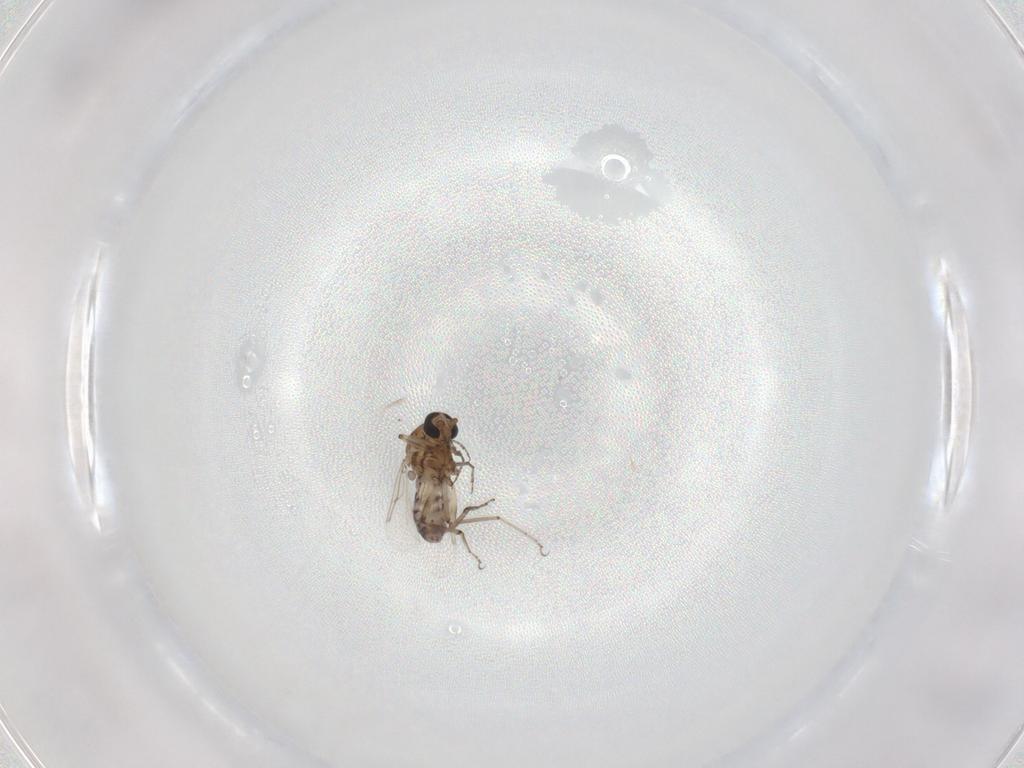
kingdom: Animalia
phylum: Arthropoda
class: Insecta
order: Diptera
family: Ceratopogonidae
